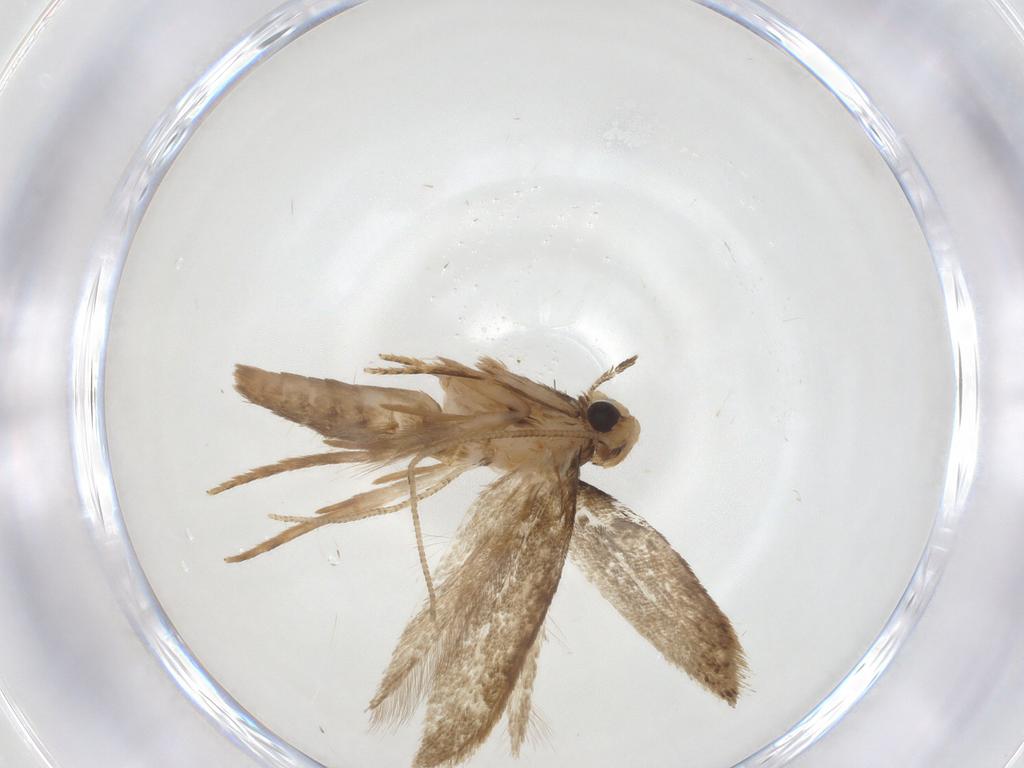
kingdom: Animalia
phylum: Arthropoda
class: Insecta
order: Lepidoptera
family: Tineidae
